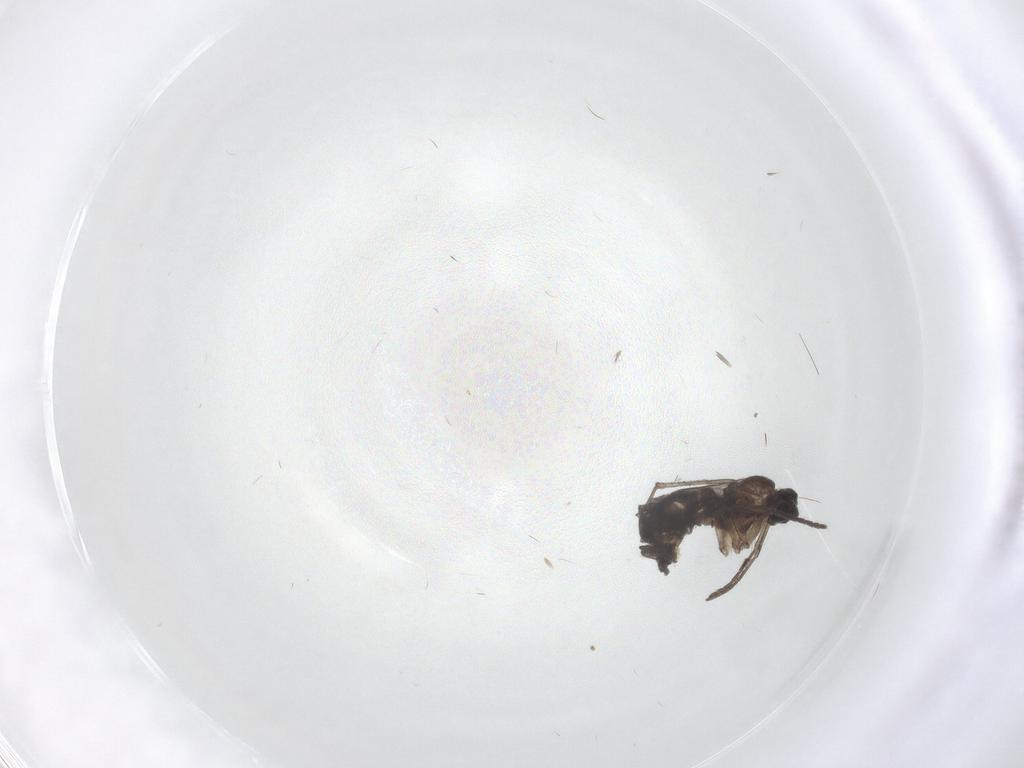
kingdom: Animalia
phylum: Arthropoda
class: Insecta
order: Diptera
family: Sciaridae
